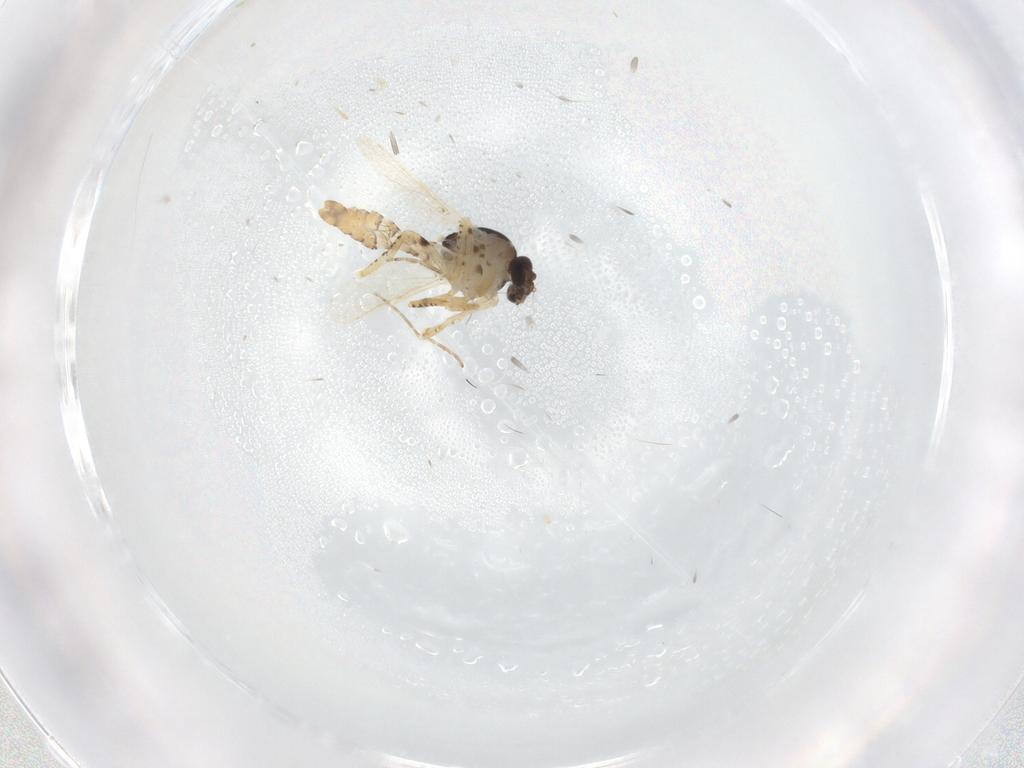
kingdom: Animalia
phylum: Arthropoda
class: Insecta
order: Diptera
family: Ceratopogonidae
